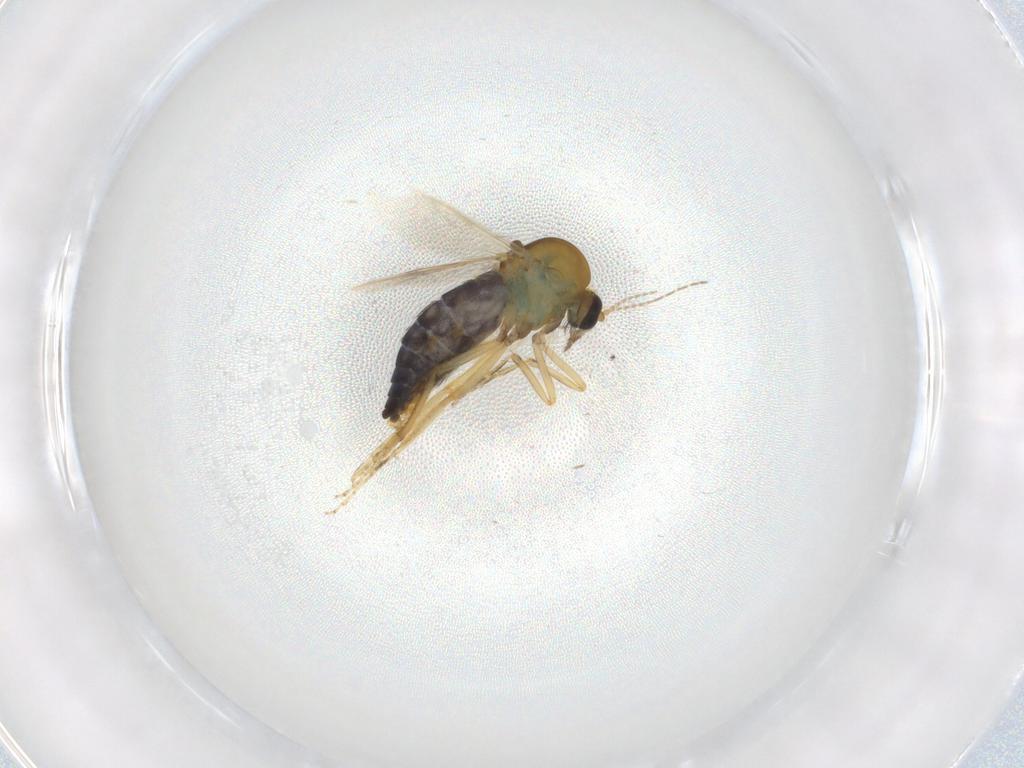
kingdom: Animalia
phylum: Arthropoda
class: Insecta
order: Diptera
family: Ceratopogonidae
